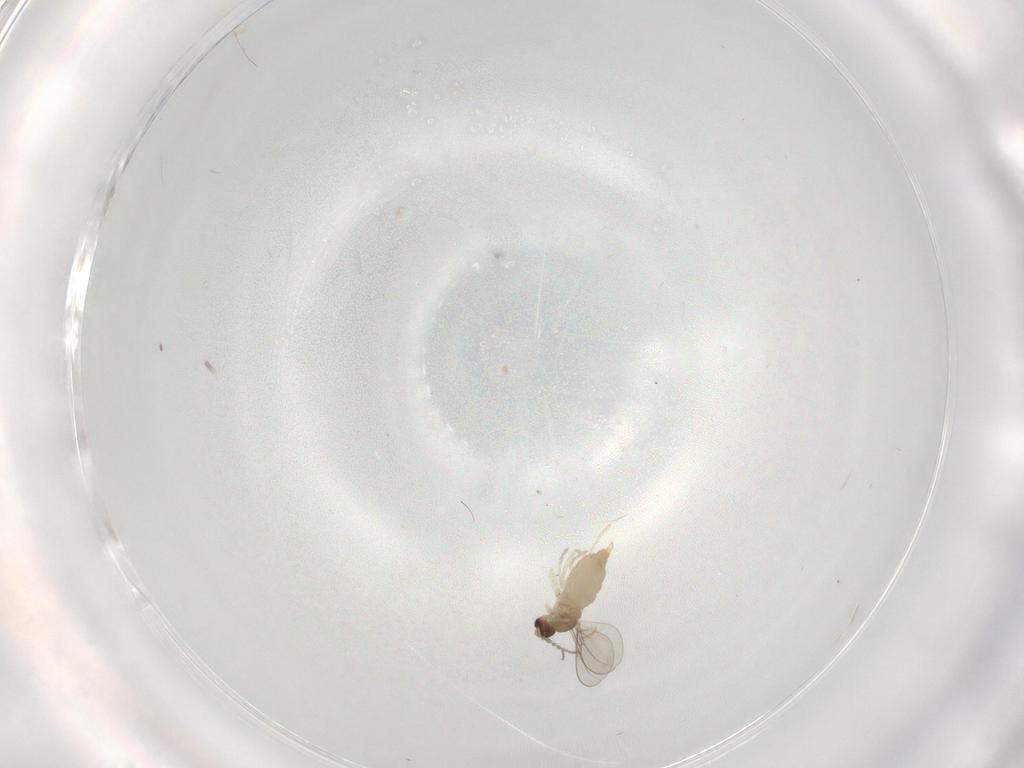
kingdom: Animalia
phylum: Arthropoda
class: Insecta
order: Diptera
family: Cecidomyiidae
